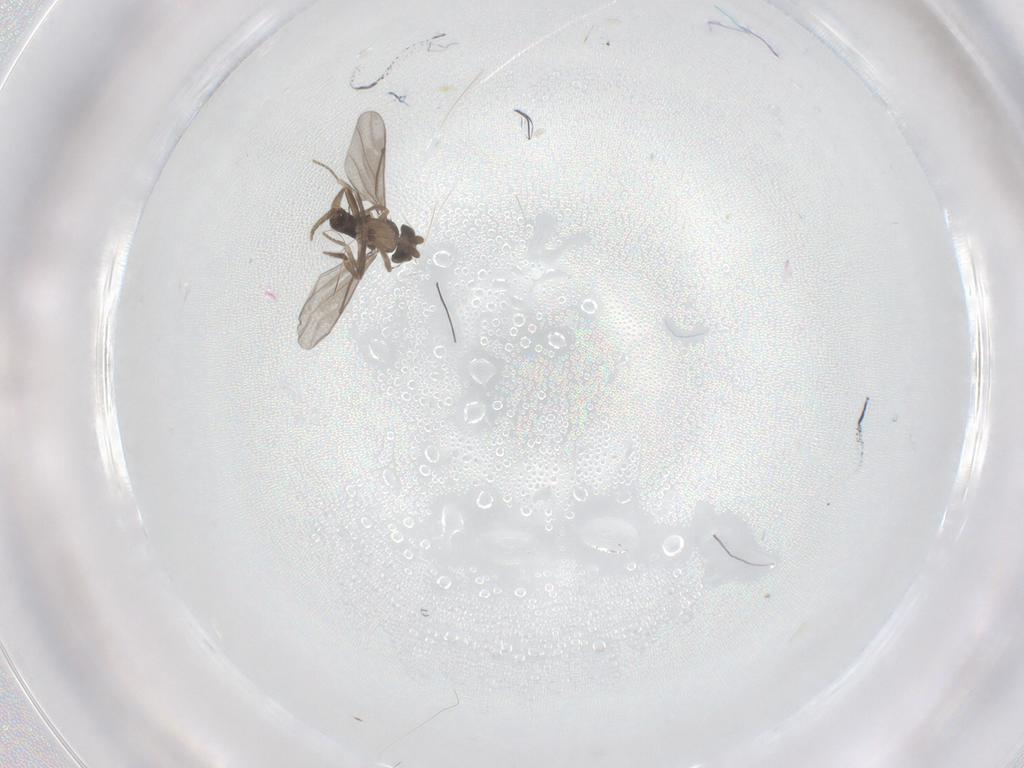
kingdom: Animalia
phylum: Arthropoda
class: Insecta
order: Diptera
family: Phoridae
